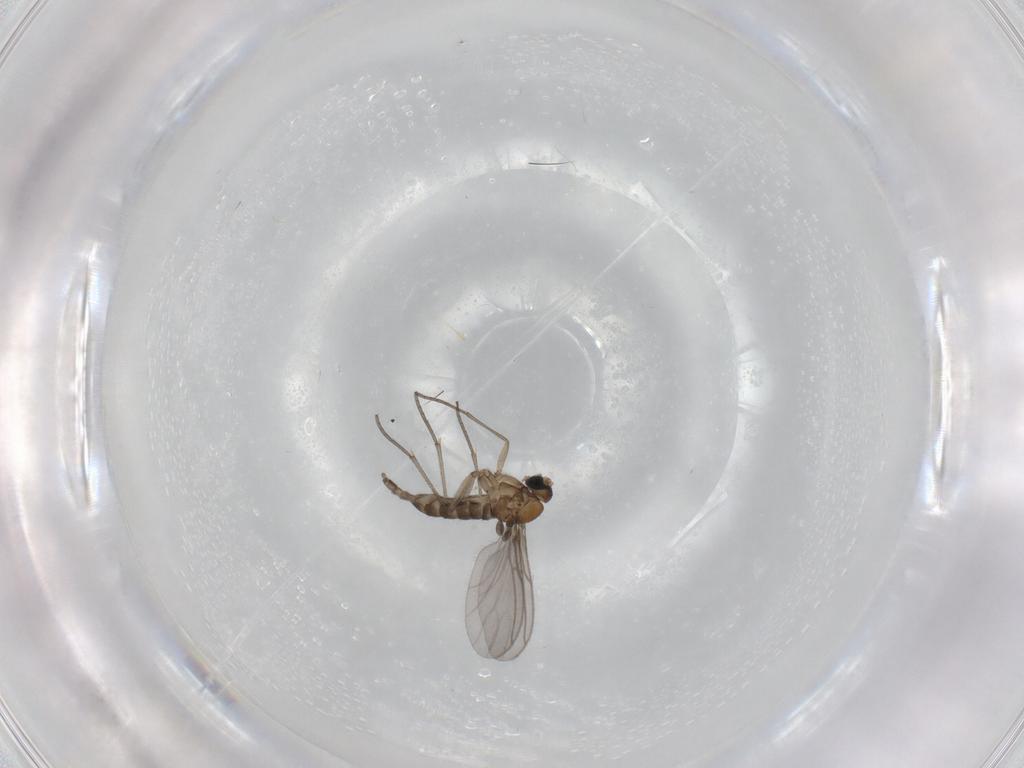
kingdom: Animalia
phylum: Arthropoda
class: Insecta
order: Diptera
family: Sciaridae
